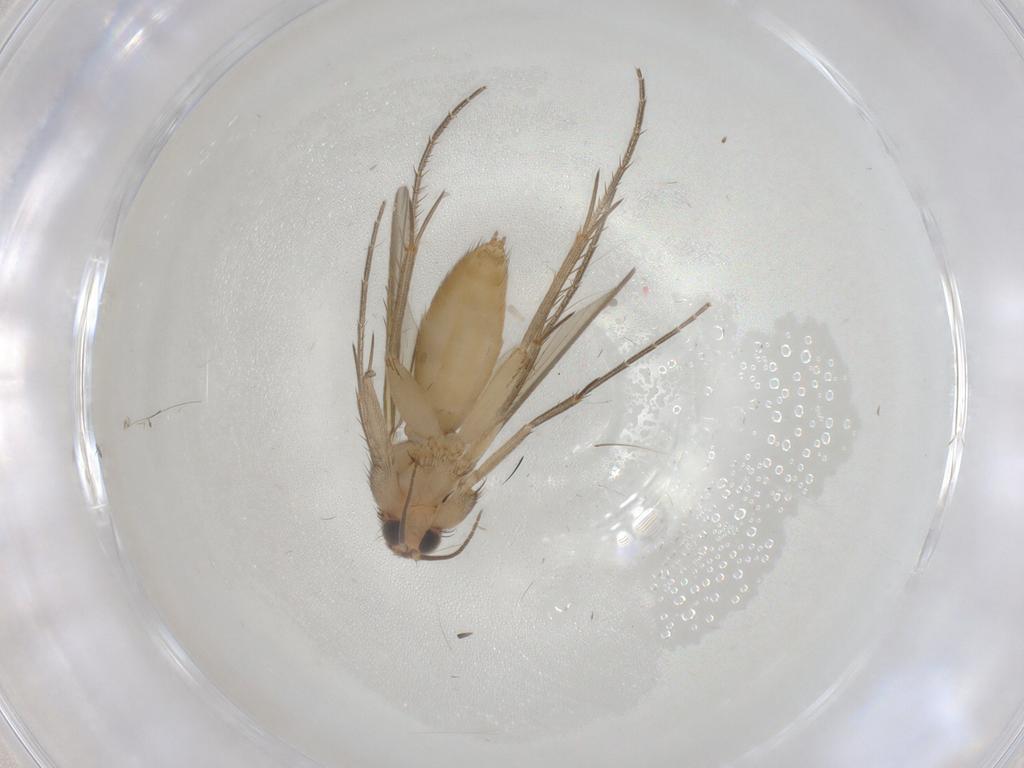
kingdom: Animalia
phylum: Arthropoda
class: Insecta
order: Diptera
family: Mycetophilidae
